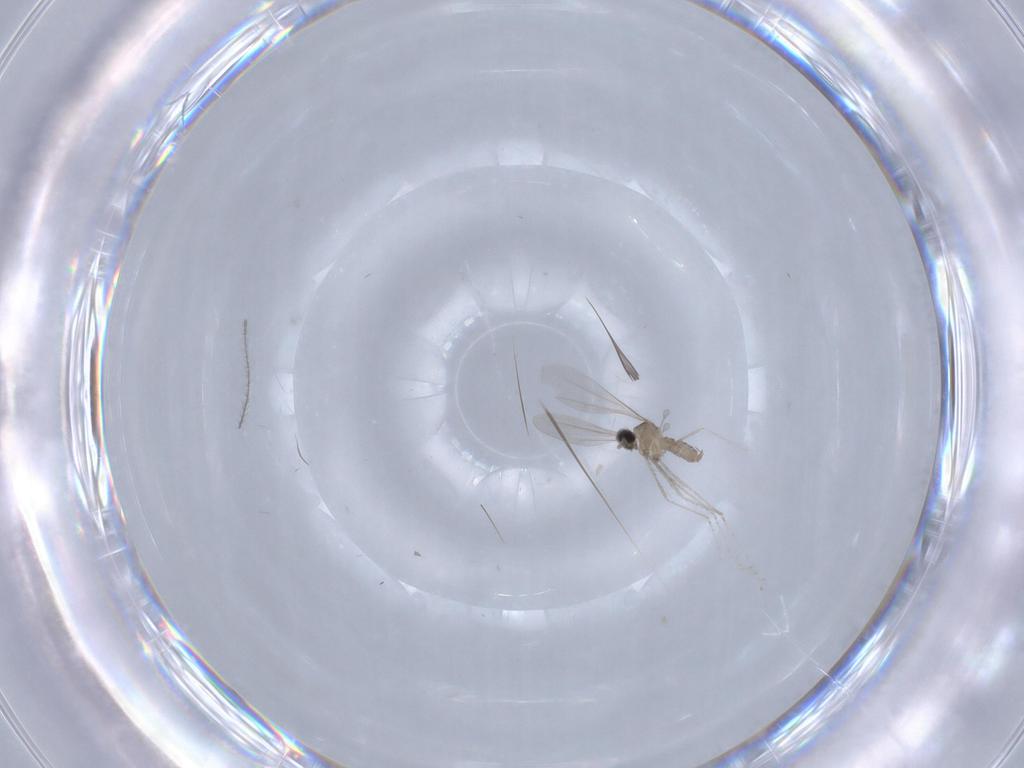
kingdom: Animalia
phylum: Arthropoda
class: Insecta
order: Diptera
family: Cecidomyiidae
